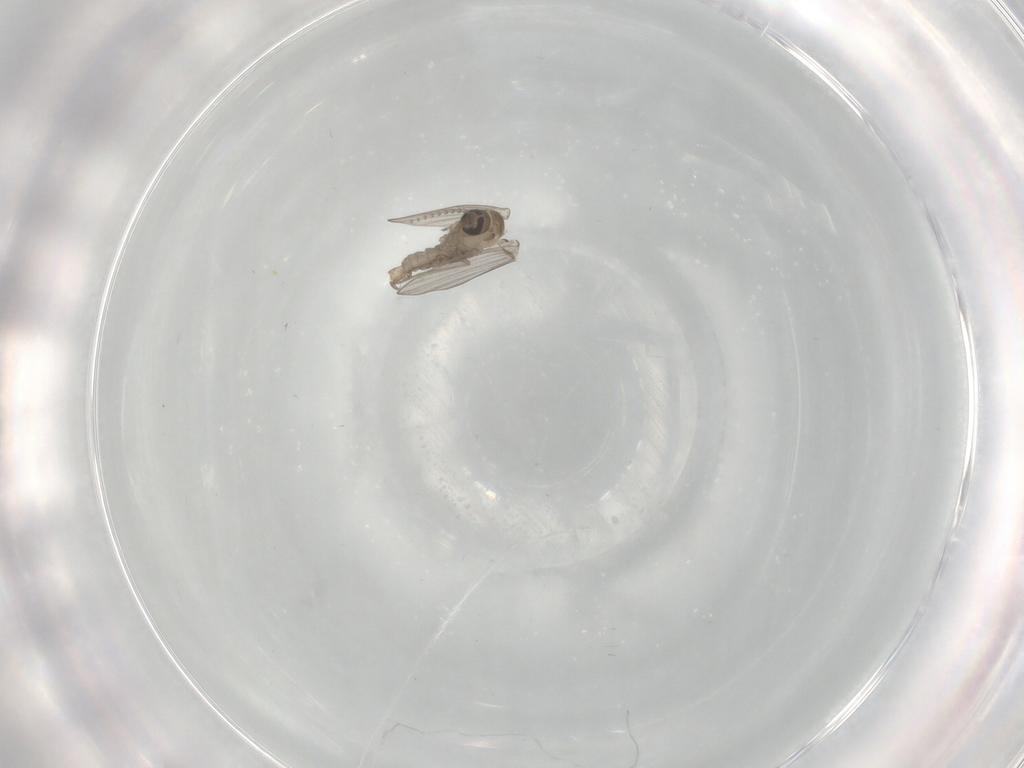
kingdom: Animalia
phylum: Arthropoda
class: Insecta
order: Diptera
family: Psychodidae
